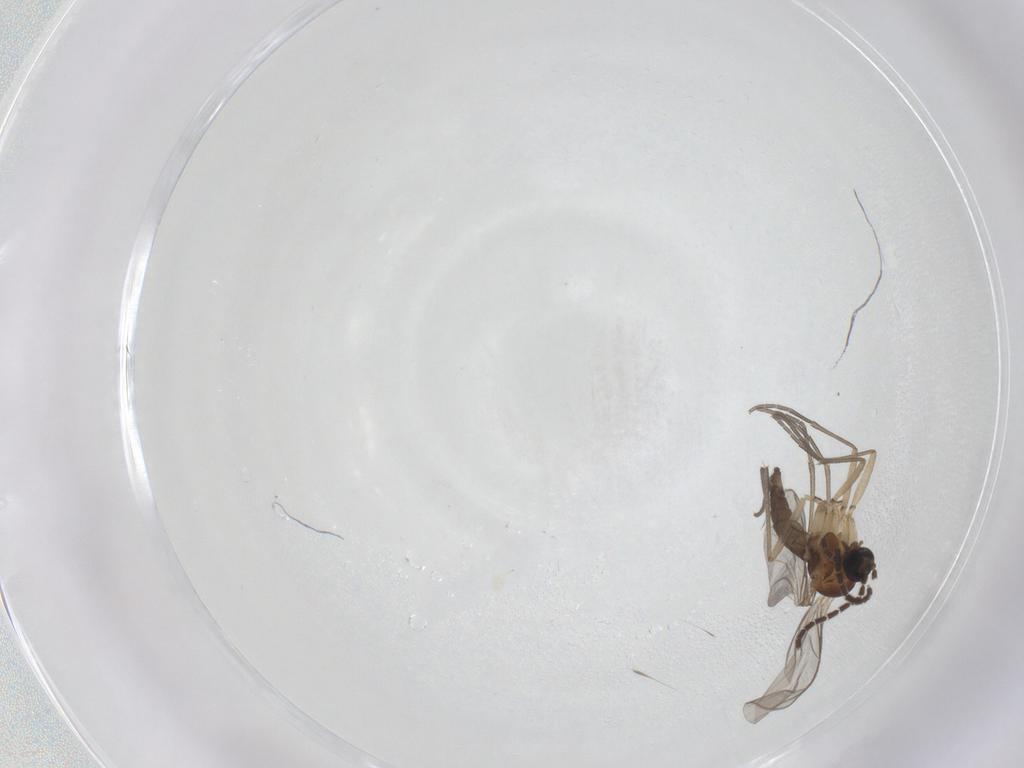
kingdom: Animalia
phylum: Arthropoda
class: Insecta
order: Diptera
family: Sciaridae
